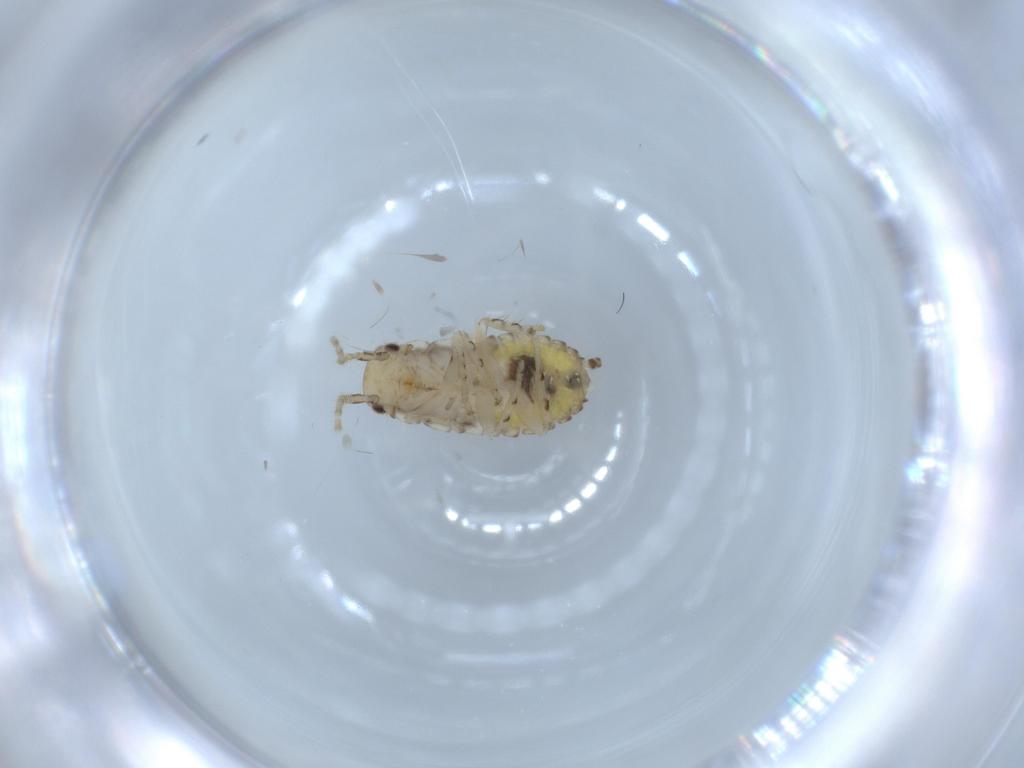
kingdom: Animalia
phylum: Arthropoda
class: Insecta
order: Blattodea
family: Ectobiidae
